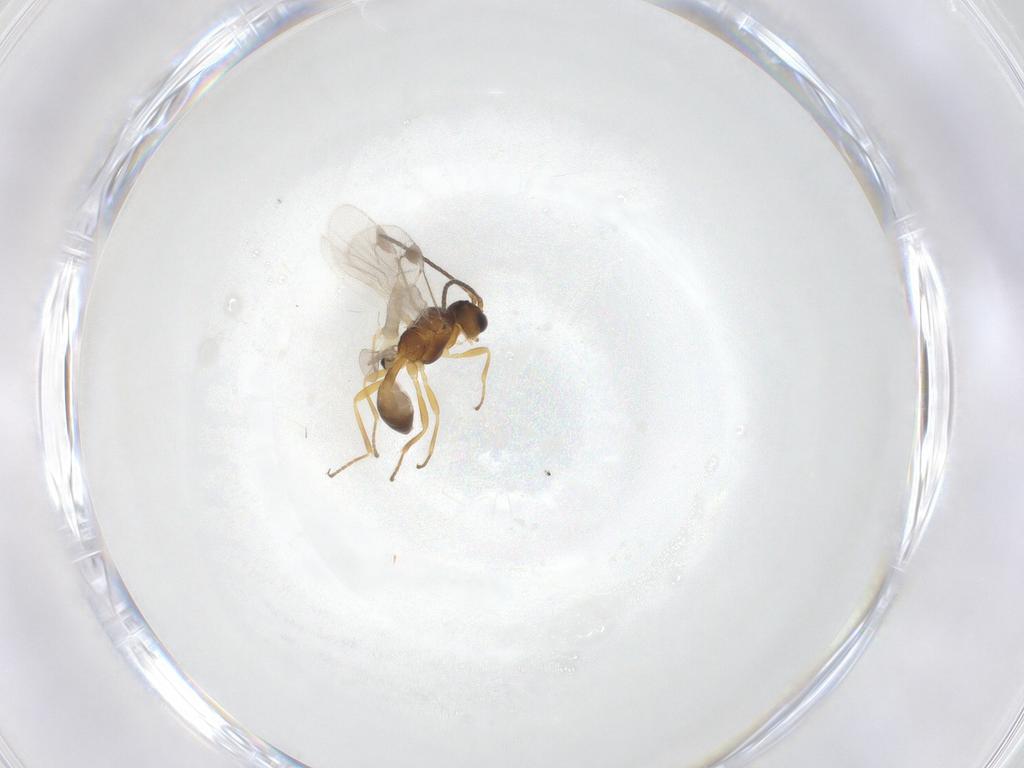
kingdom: Animalia
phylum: Arthropoda
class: Insecta
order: Hymenoptera
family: Braconidae
